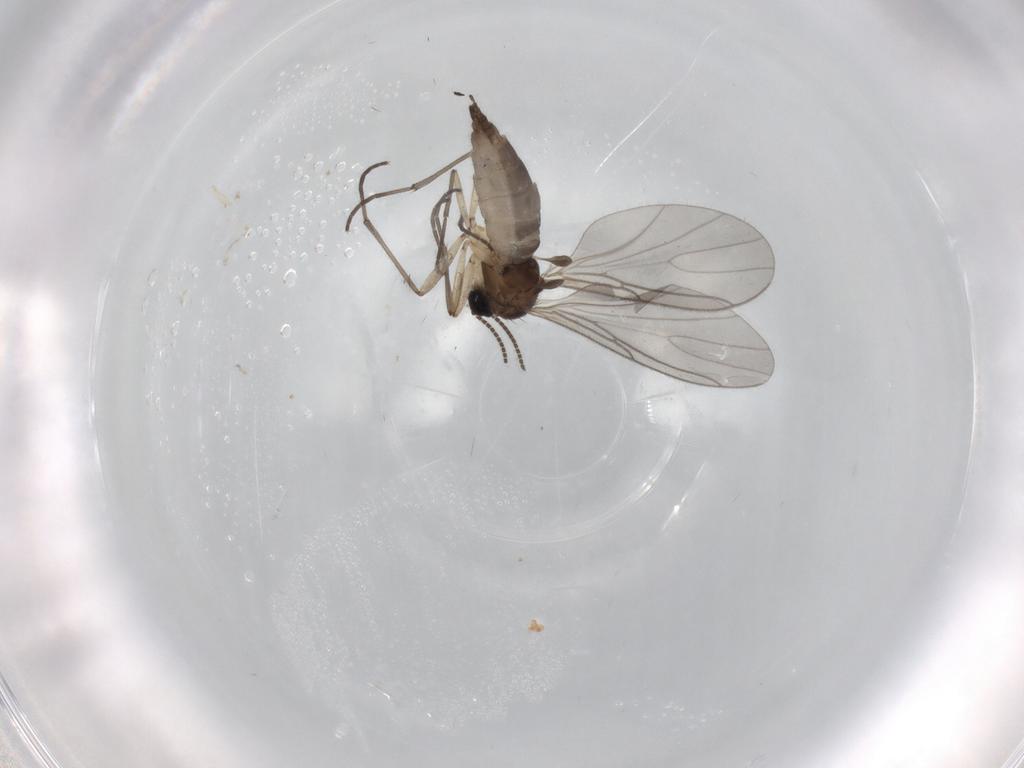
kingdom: Animalia
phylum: Arthropoda
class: Insecta
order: Diptera
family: Sciaridae
